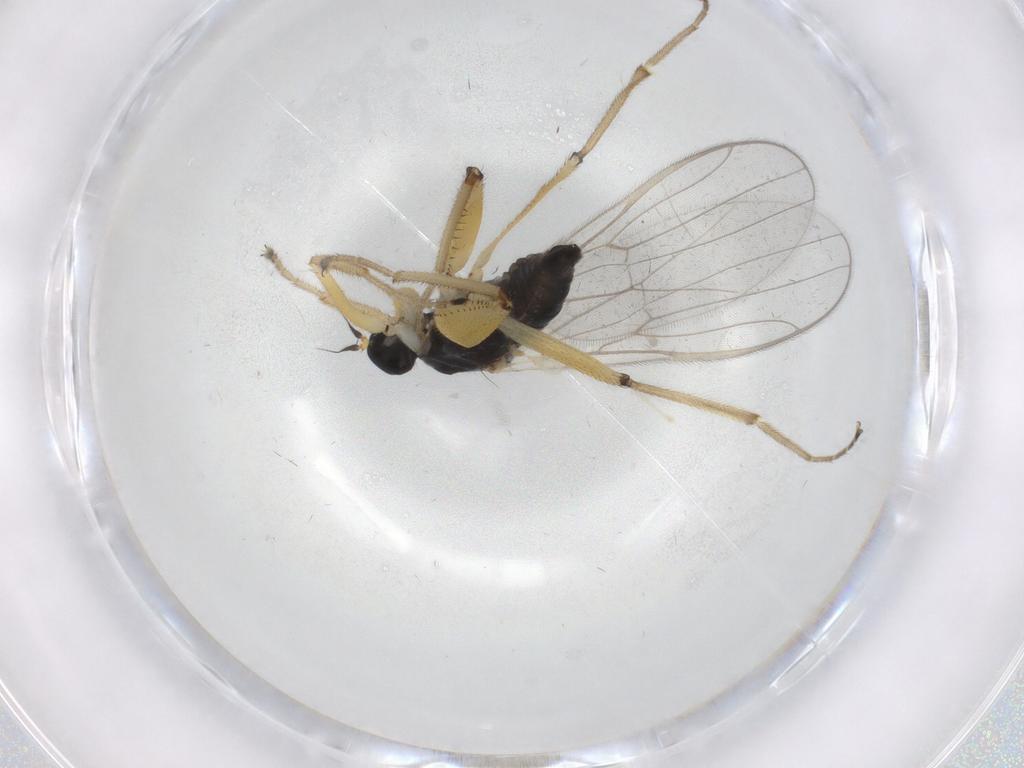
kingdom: Animalia
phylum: Arthropoda
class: Insecta
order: Diptera
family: Hybotidae
